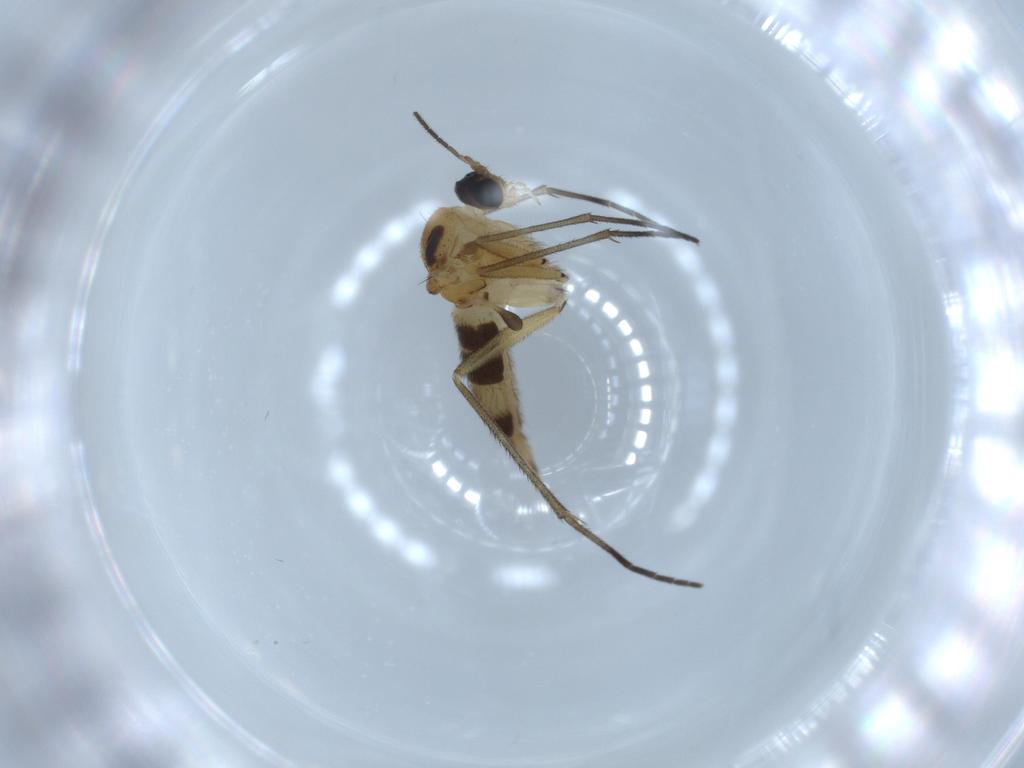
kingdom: Animalia
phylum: Arthropoda
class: Insecta
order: Diptera
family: Sciaridae
